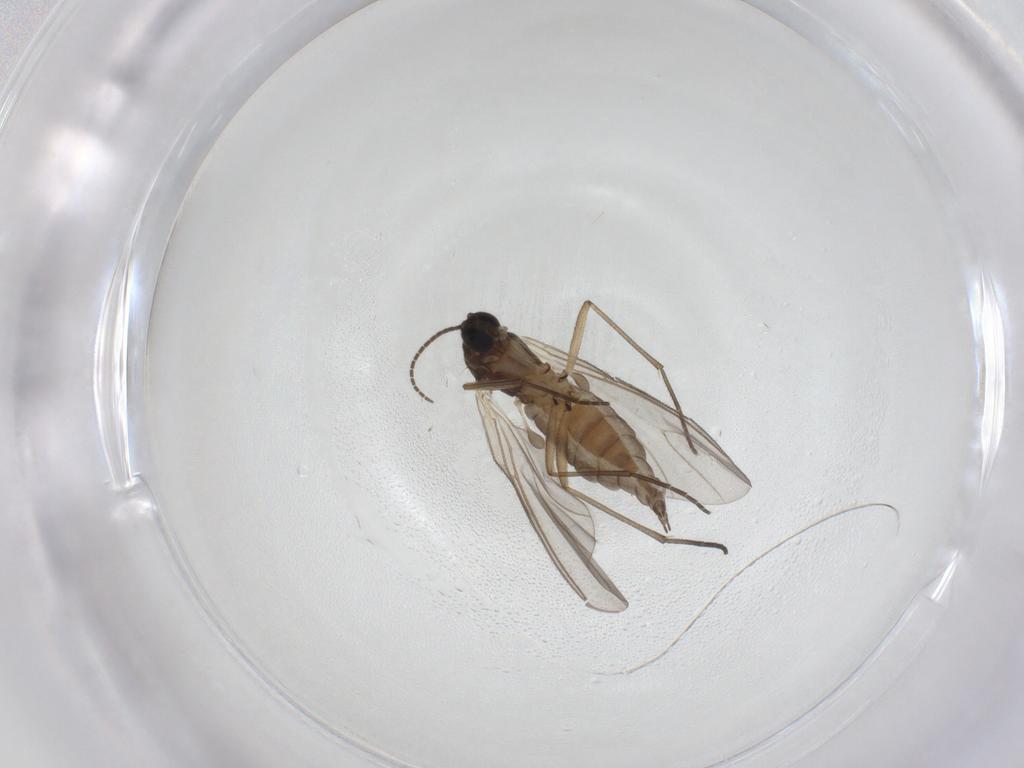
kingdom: Animalia
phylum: Arthropoda
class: Insecta
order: Diptera
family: Sciaridae
